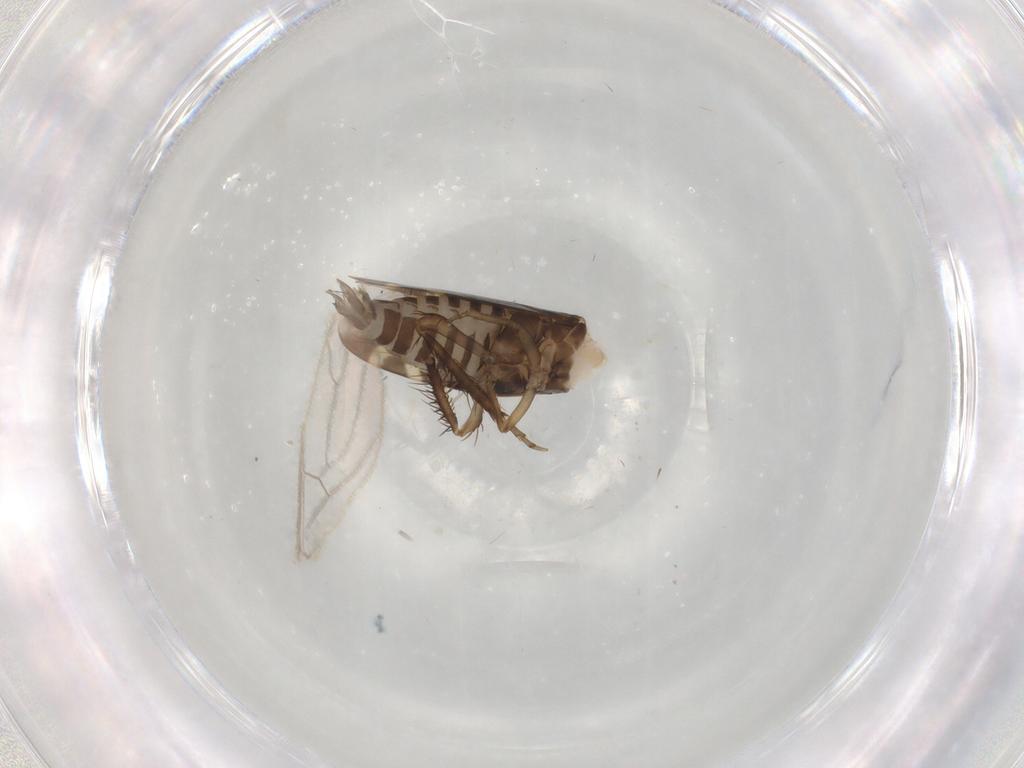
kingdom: Animalia
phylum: Arthropoda
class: Insecta
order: Hemiptera
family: Cicadellidae
